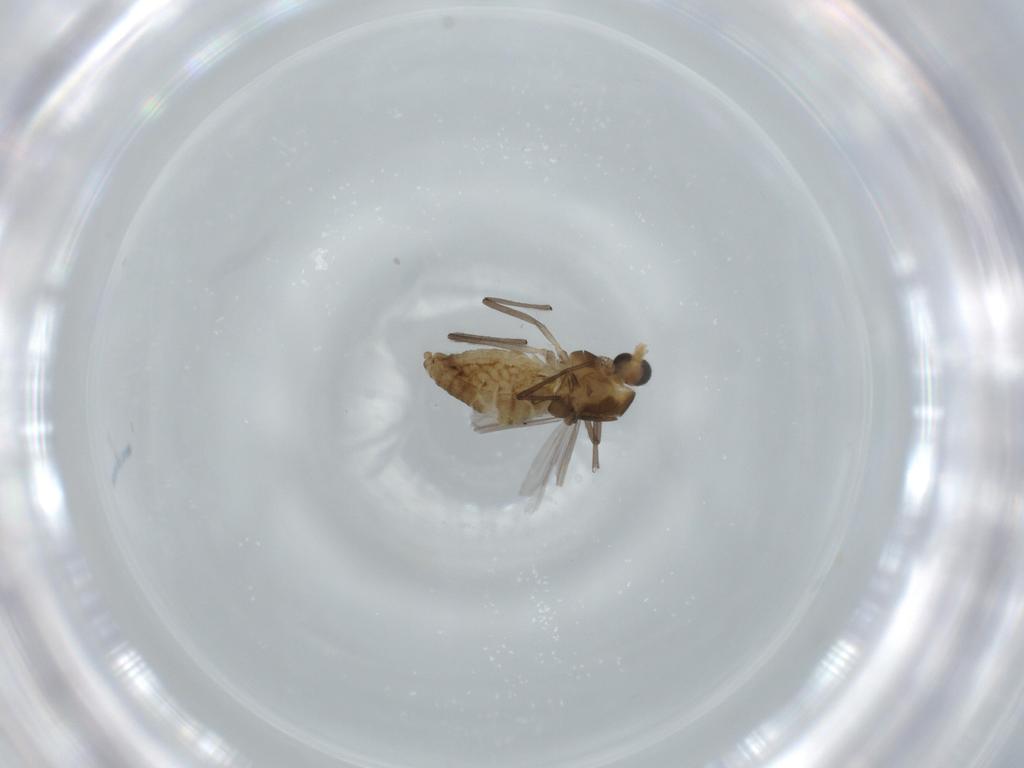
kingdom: Animalia
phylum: Arthropoda
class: Insecta
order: Diptera
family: Chironomidae
